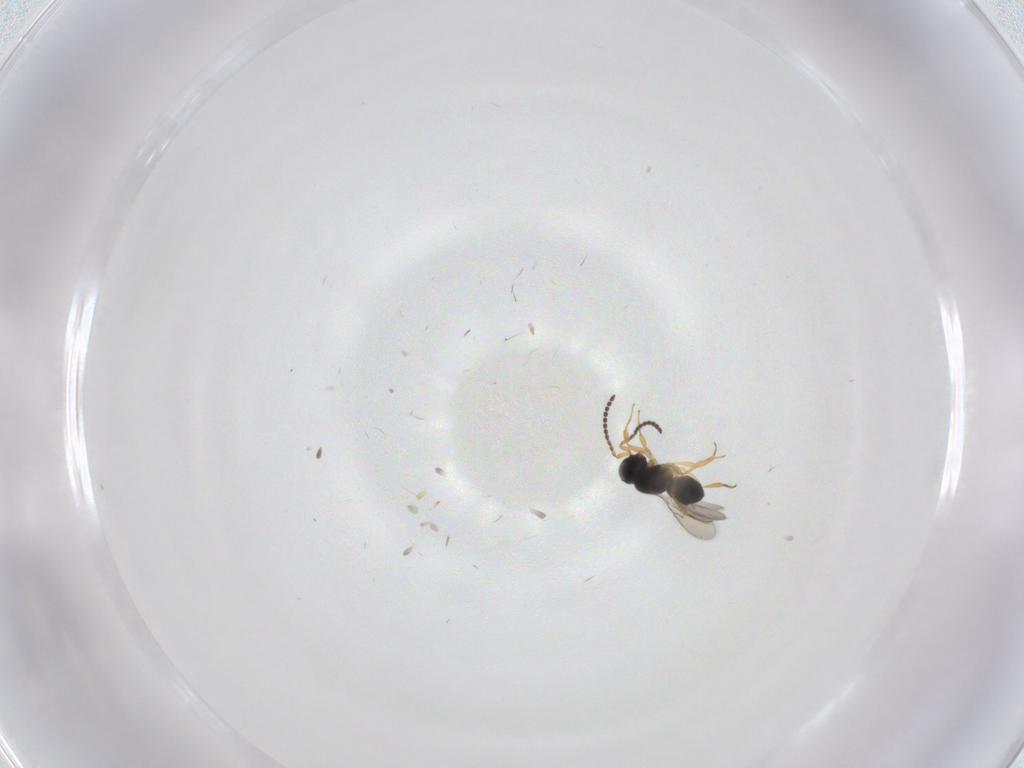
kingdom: Animalia
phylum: Arthropoda
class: Insecta
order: Hymenoptera
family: Scelionidae
